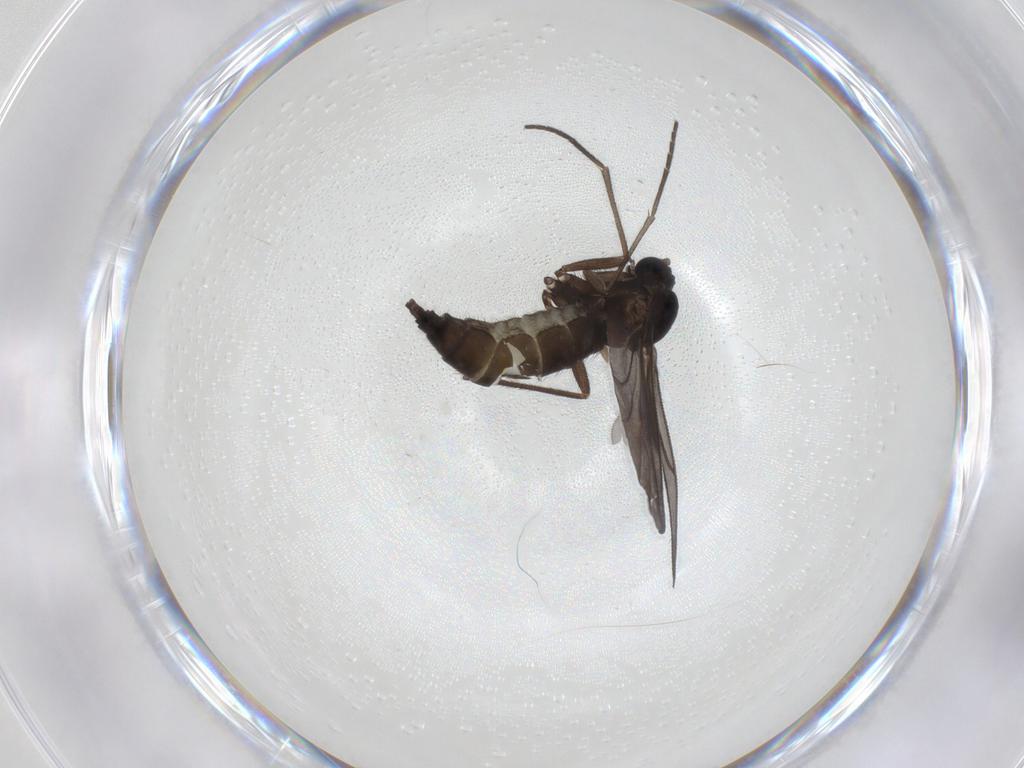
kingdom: Animalia
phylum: Arthropoda
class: Insecta
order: Diptera
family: Sciaridae
